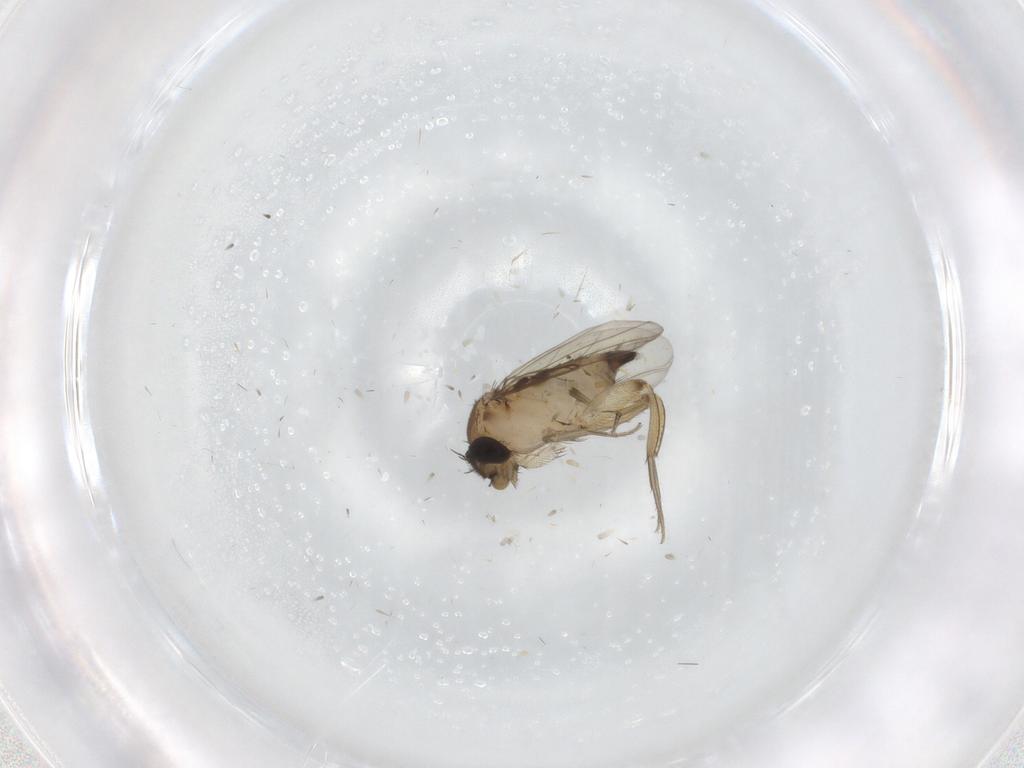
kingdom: Animalia
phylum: Arthropoda
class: Insecta
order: Diptera
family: Phoridae
